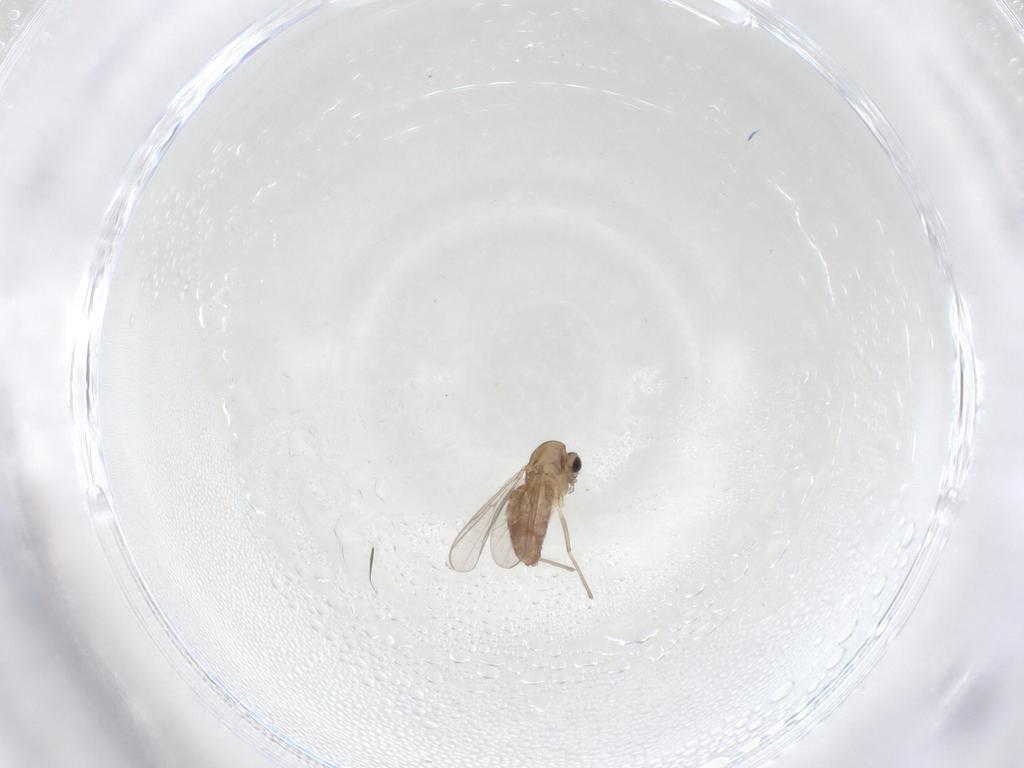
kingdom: Animalia
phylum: Arthropoda
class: Insecta
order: Diptera
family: Chironomidae
